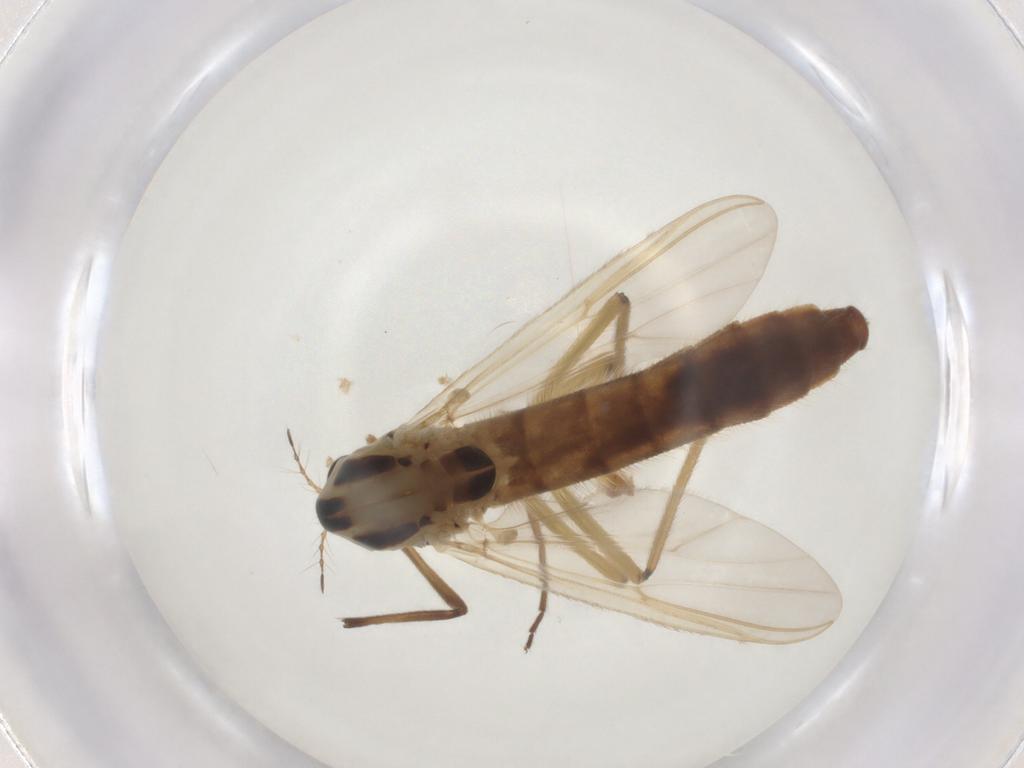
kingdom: Animalia
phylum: Arthropoda
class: Insecta
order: Diptera
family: Chironomidae
